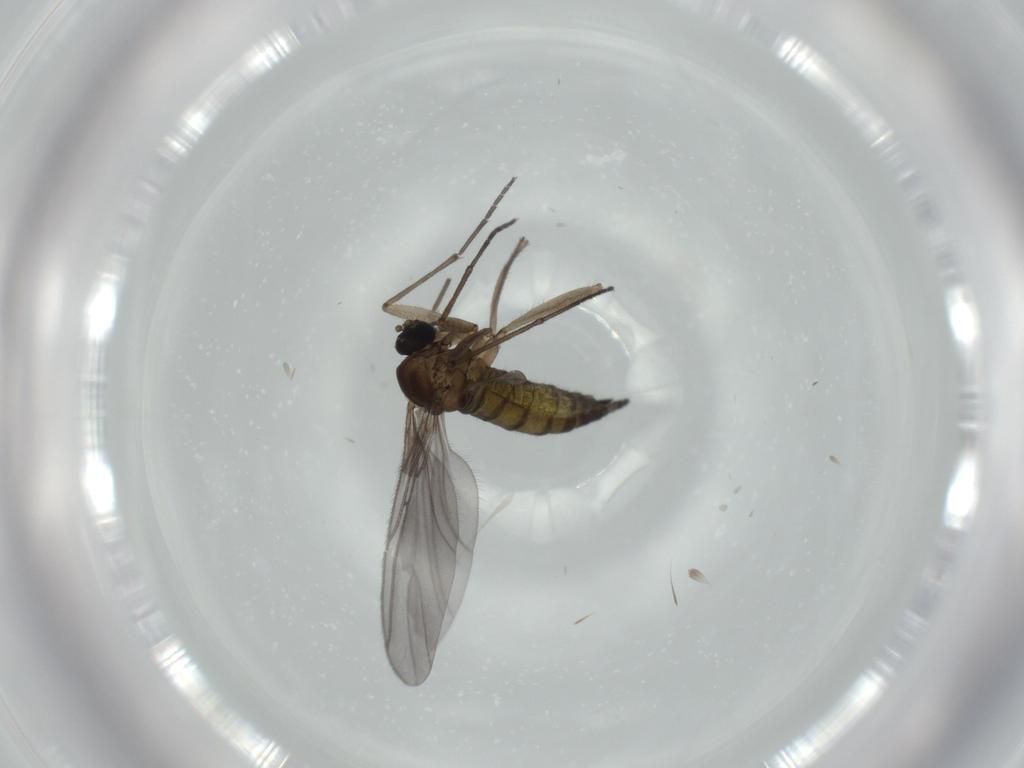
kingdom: Animalia
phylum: Arthropoda
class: Insecta
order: Diptera
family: Sciaridae
